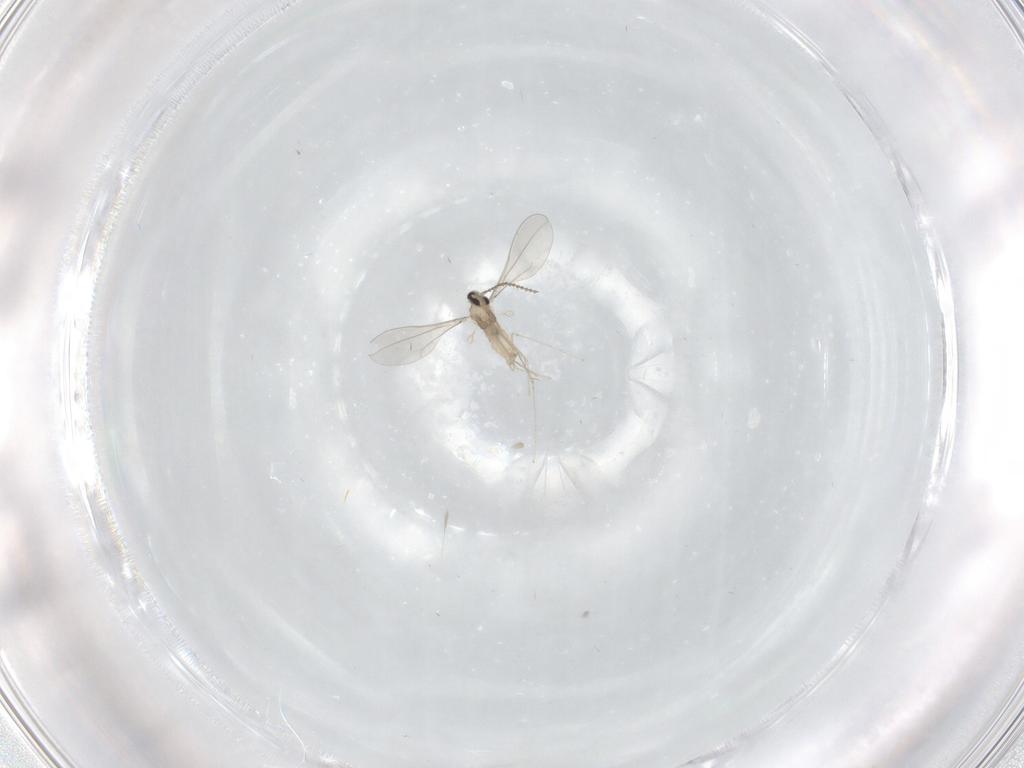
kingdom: Animalia
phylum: Arthropoda
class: Insecta
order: Diptera
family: Cecidomyiidae
